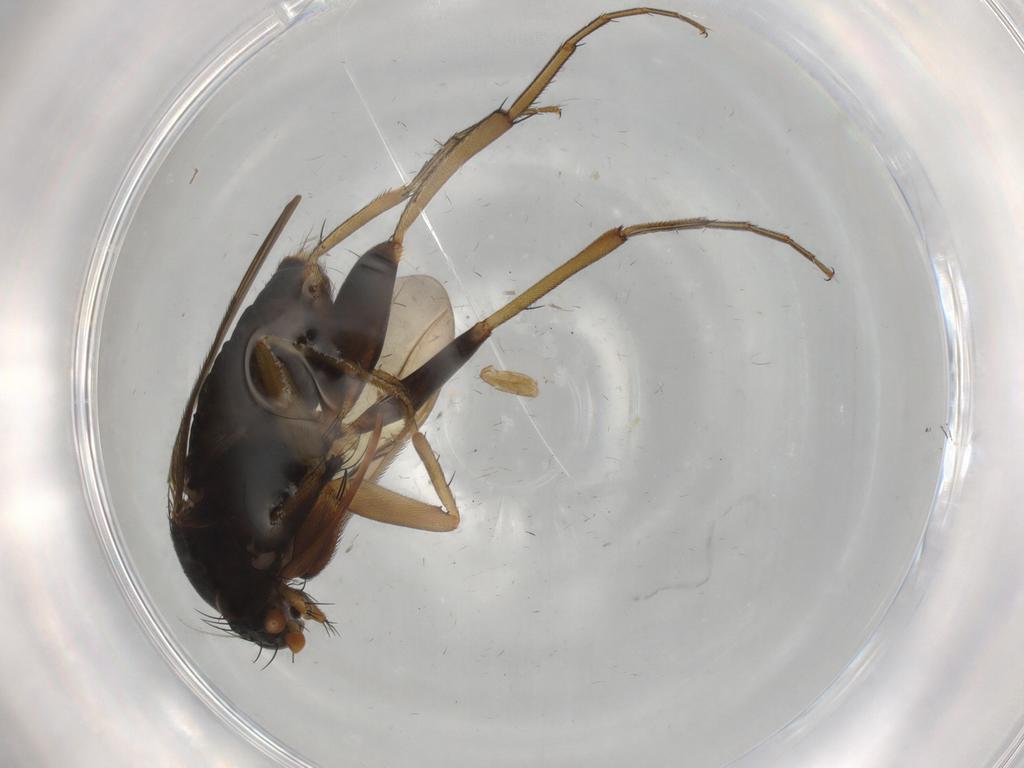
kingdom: Animalia
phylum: Arthropoda
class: Insecta
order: Diptera
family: Phoridae
